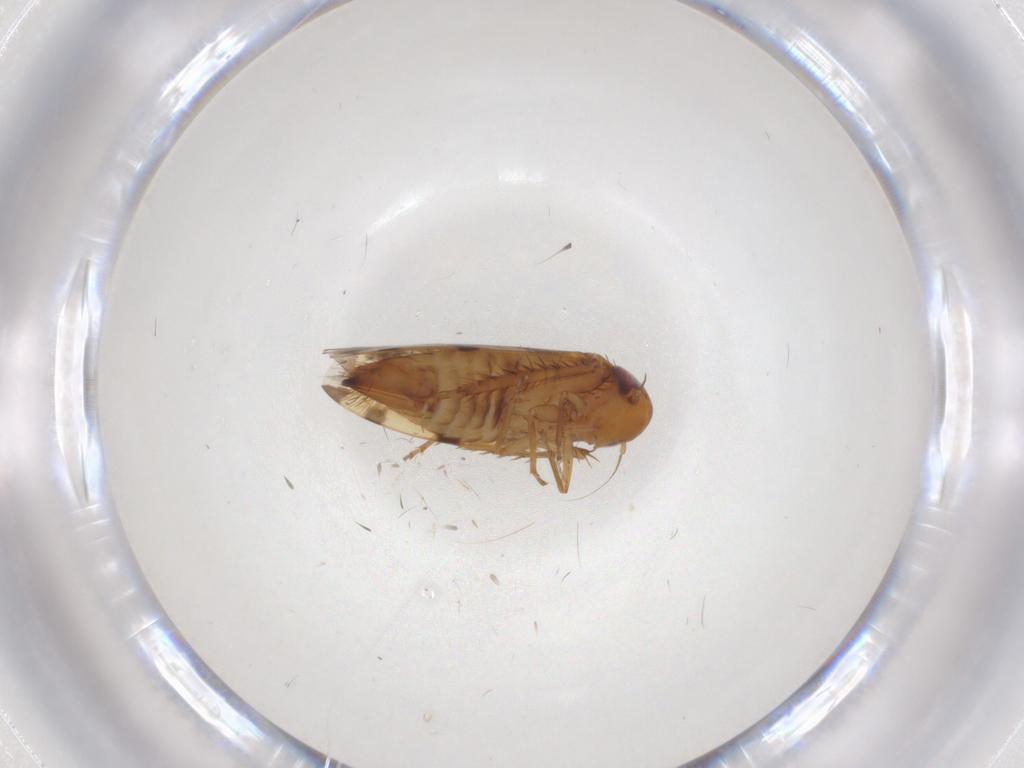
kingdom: Animalia
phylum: Arthropoda
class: Insecta
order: Hemiptera
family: Cicadellidae
